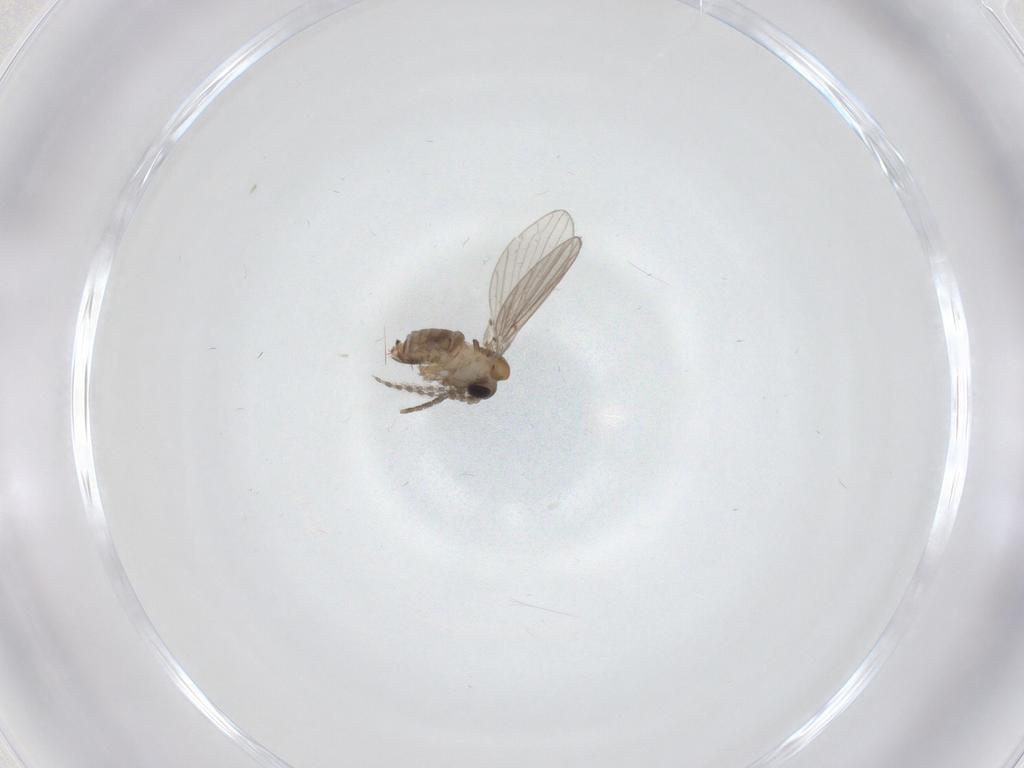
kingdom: Animalia
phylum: Arthropoda
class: Insecta
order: Diptera
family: Psychodidae
